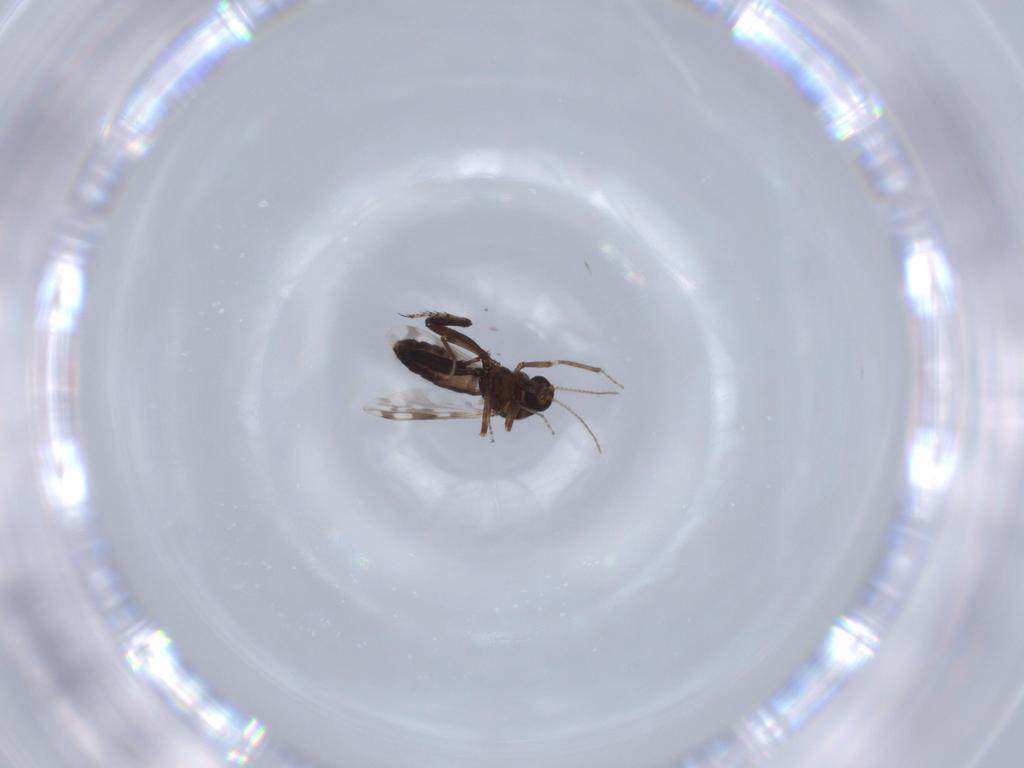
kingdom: Animalia
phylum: Arthropoda
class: Insecta
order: Diptera
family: Ceratopogonidae
